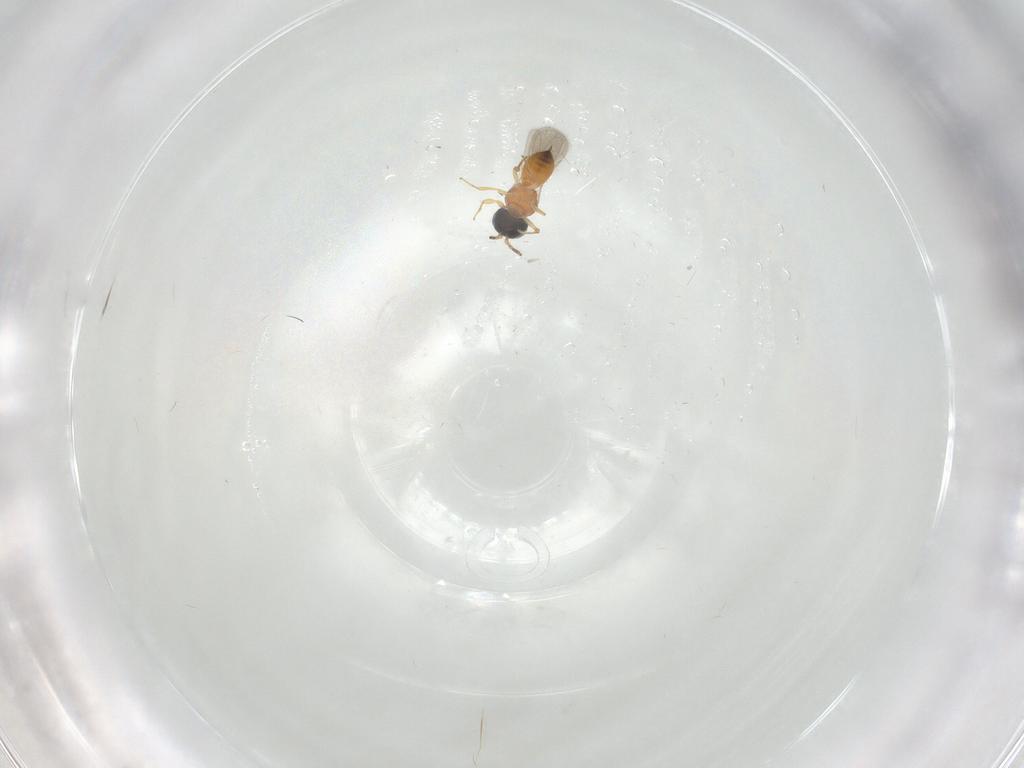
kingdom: Animalia
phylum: Arthropoda
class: Insecta
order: Hymenoptera
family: Scelionidae
